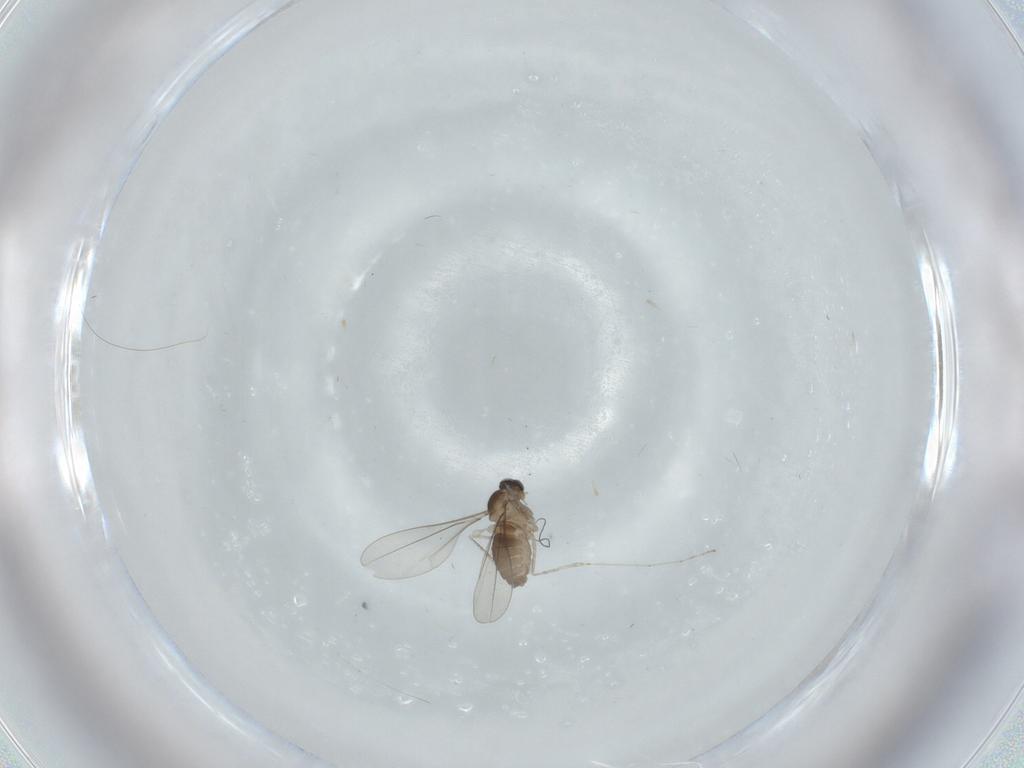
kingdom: Animalia
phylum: Arthropoda
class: Insecta
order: Diptera
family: Cecidomyiidae
